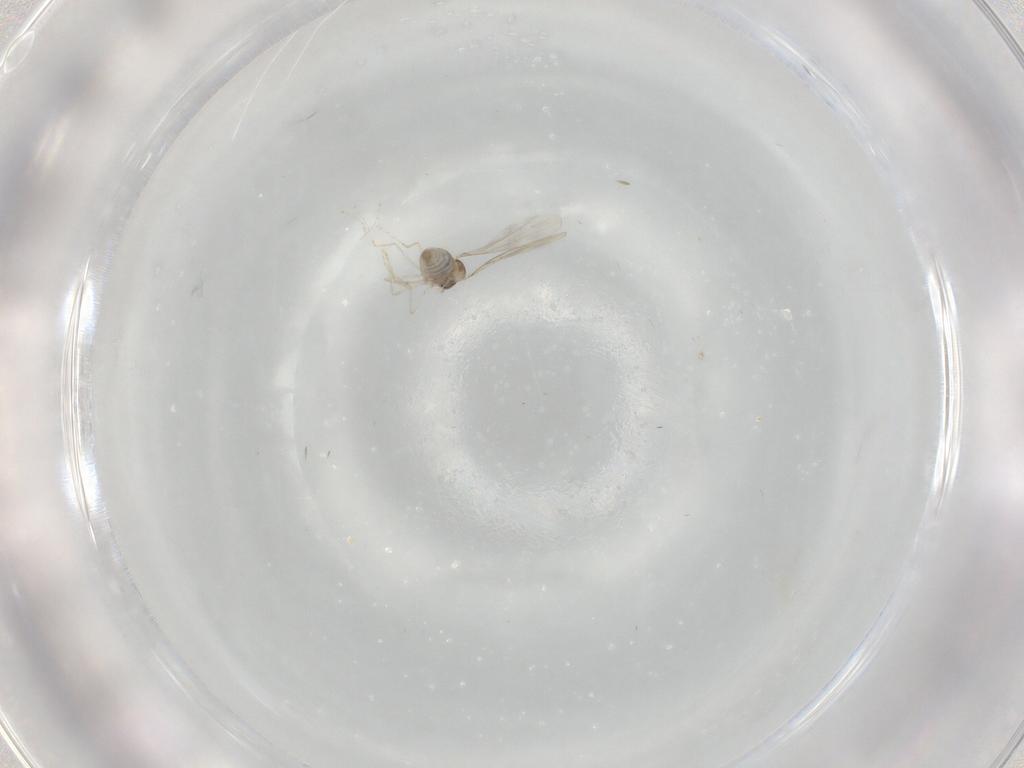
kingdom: Animalia
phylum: Arthropoda
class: Insecta
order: Diptera
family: Cecidomyiidae
